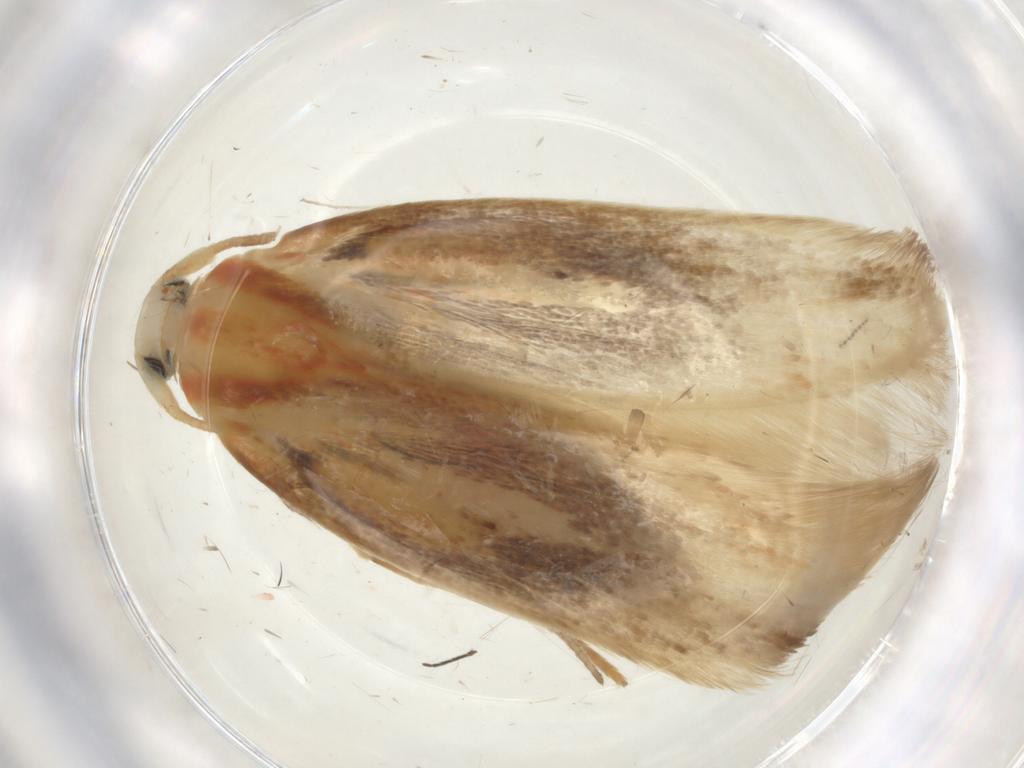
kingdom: Animalia
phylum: Arthropoda
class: Insecta
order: Lepidoptera
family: Geometridae
